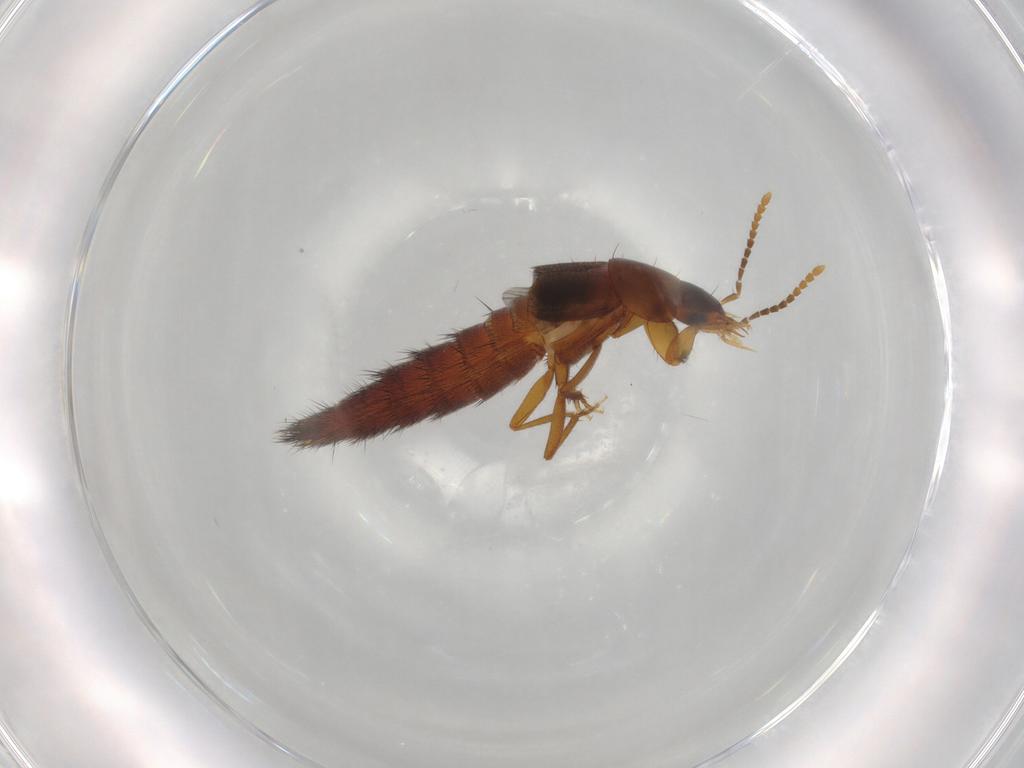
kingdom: Animalia
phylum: Arthropoda
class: Insecta
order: Coleoptera
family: Staphylinidae
